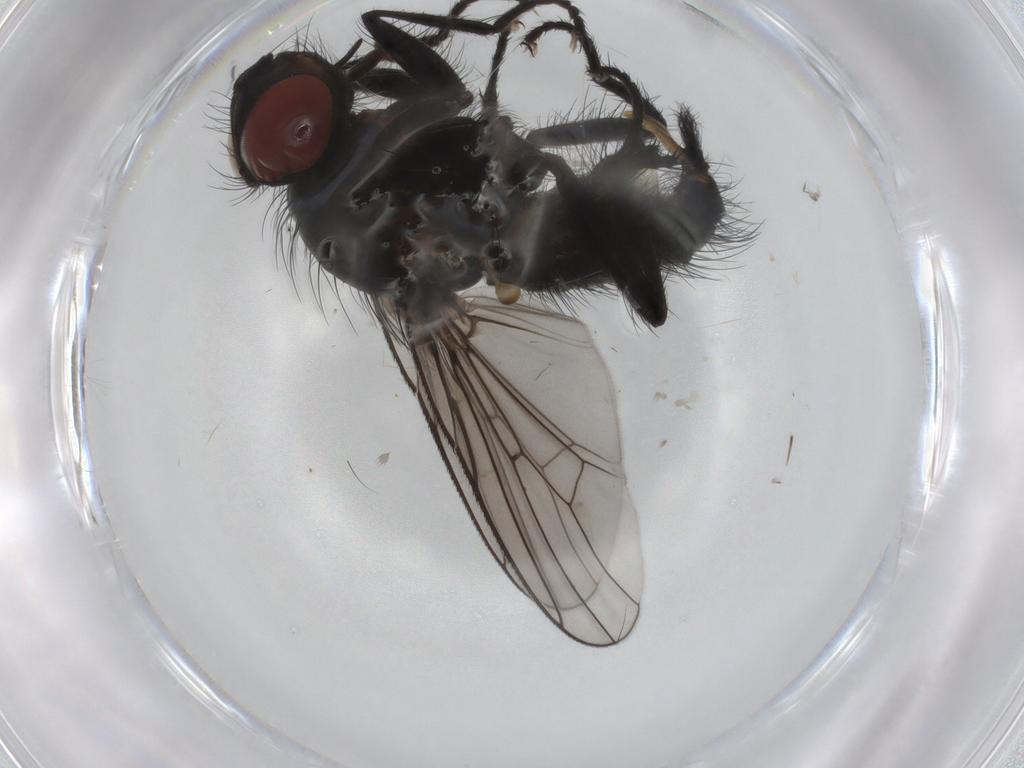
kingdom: Animalia
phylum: Arthropoda
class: Insecta
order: Diptera
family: Anthomyiidae
